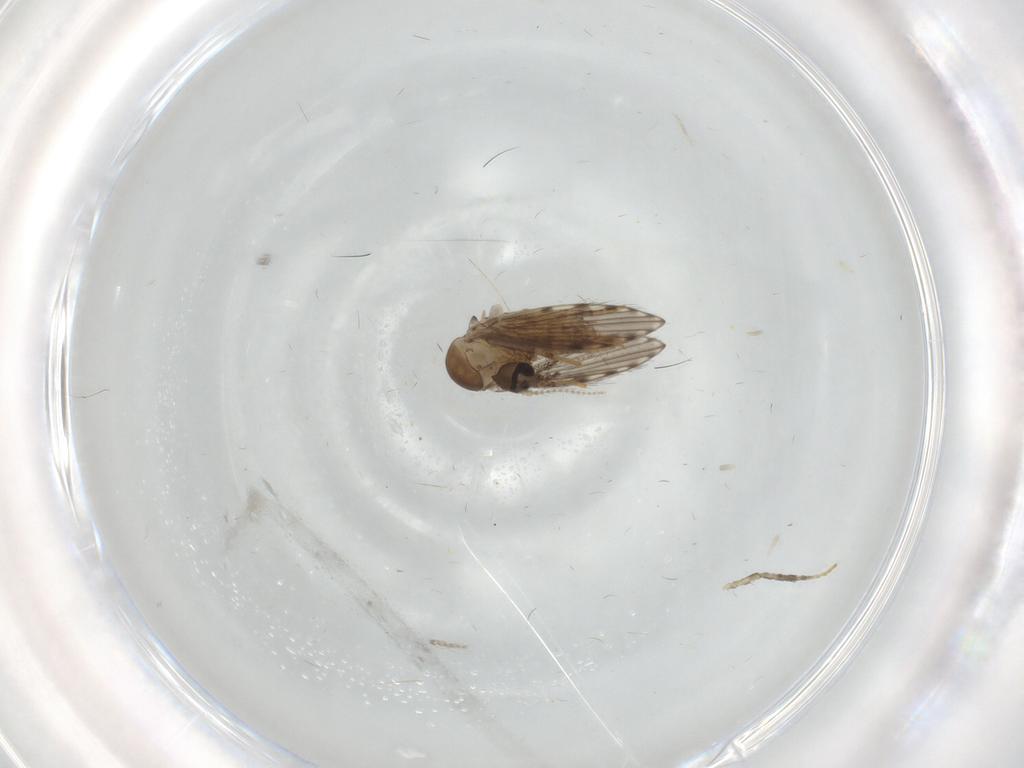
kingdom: Animalia
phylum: Arthropoda
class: Insecta
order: Diptera
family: Psychodidae
